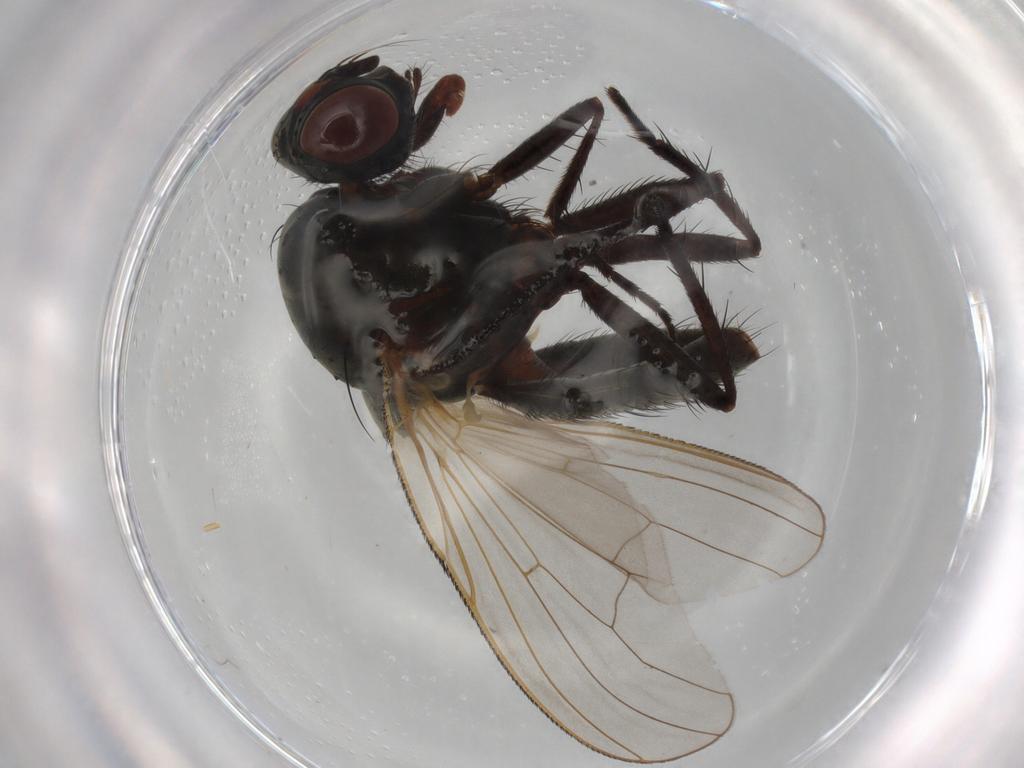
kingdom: Animalia
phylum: Arthropoda
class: Insecta
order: Diptera
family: Anthomyiidae
